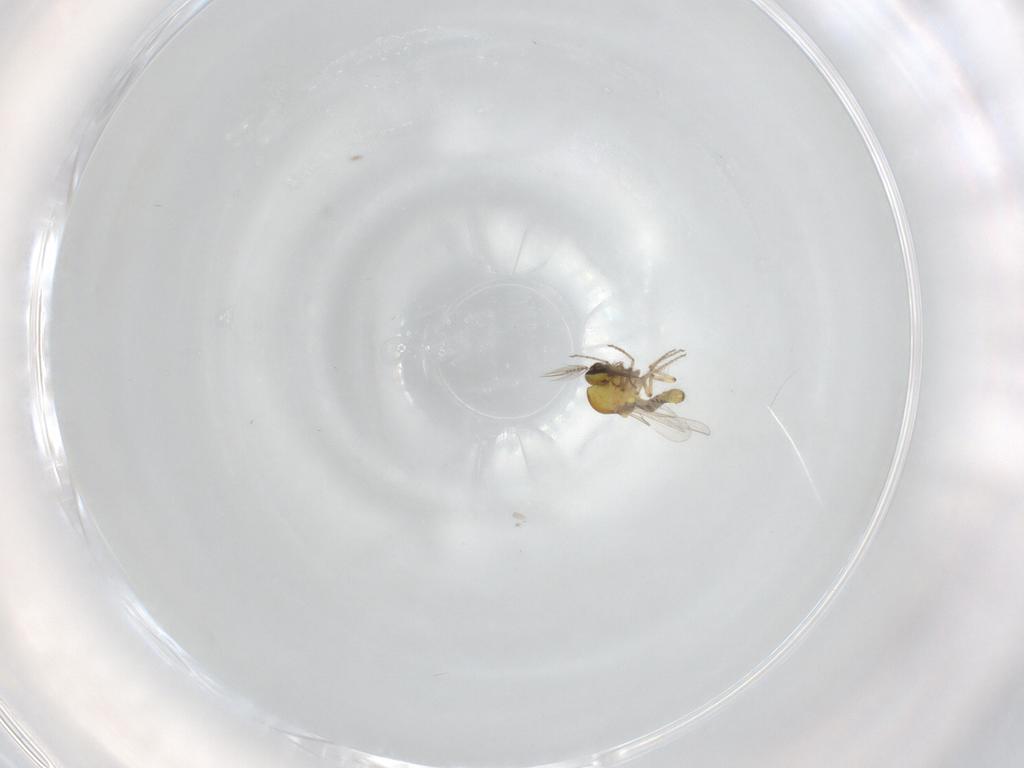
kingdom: Animalia
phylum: Arthropoda
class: Insecta
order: Diptera
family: Ceratopogonidae
